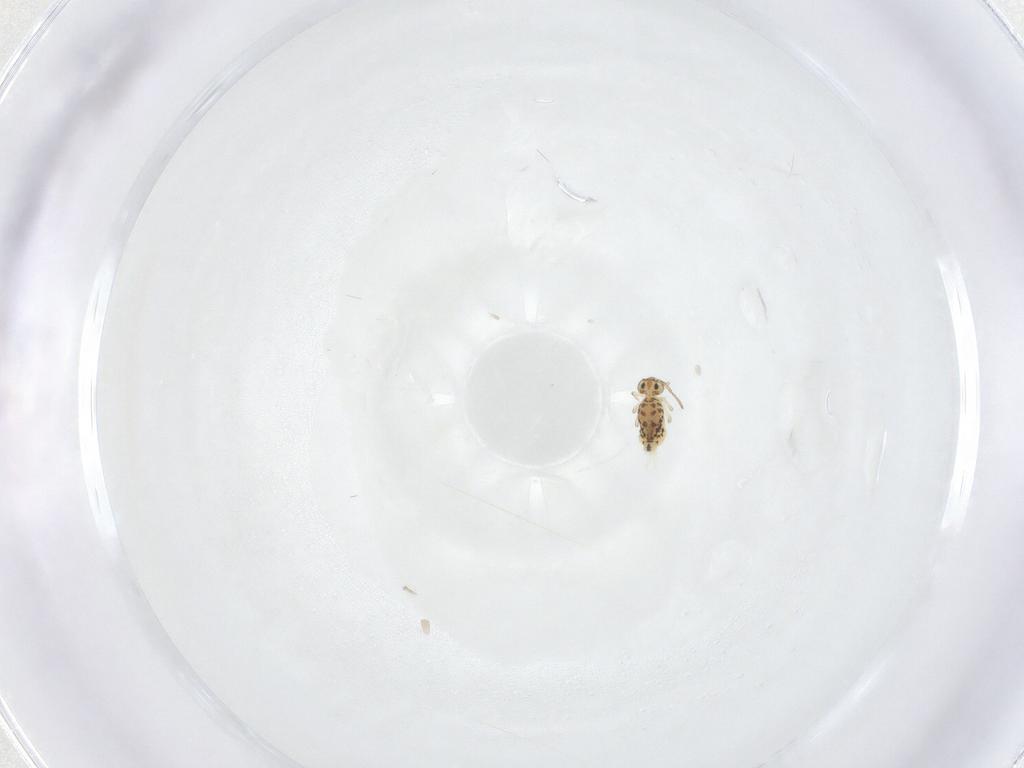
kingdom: Animalia
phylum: Arthropoda
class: Collembola
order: Symphypleona
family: Bourletiellidae
